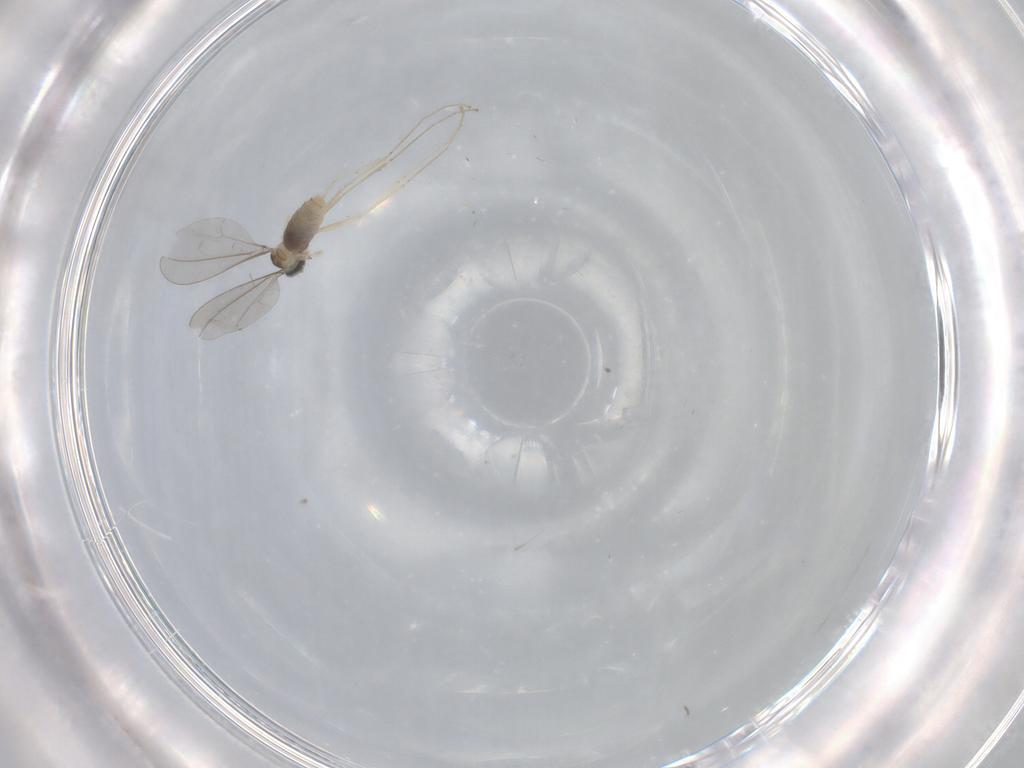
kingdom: Animalia
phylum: Arthropoda
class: Insecta
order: Diptera
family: Cecidomyiidae
